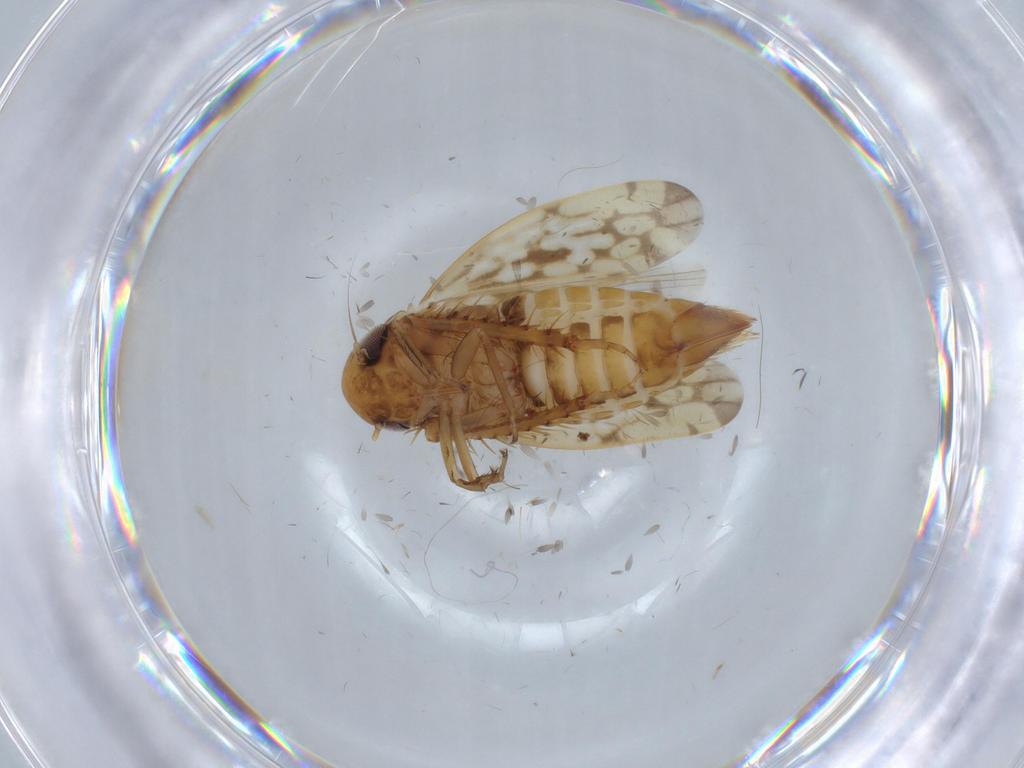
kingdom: Animalia
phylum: Arthropoda
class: Insecta
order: Hemiptera
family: Cicadellidae
